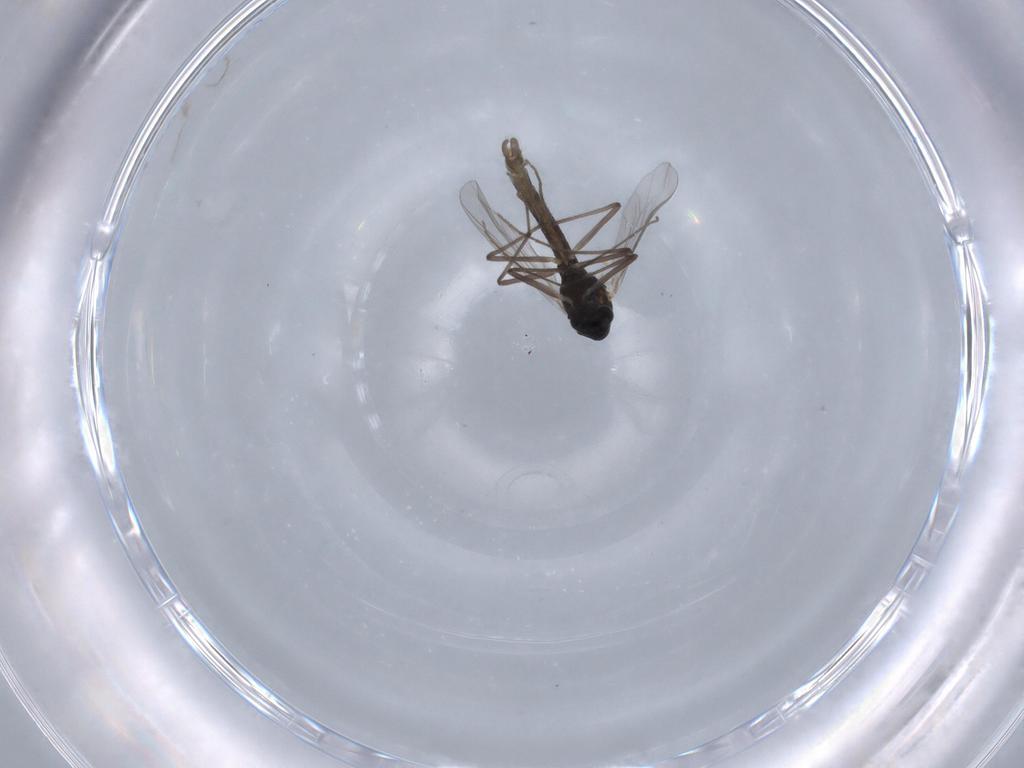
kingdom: Animalia
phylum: Arthropoda
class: Insecta
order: Diptera
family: Chironomidae
